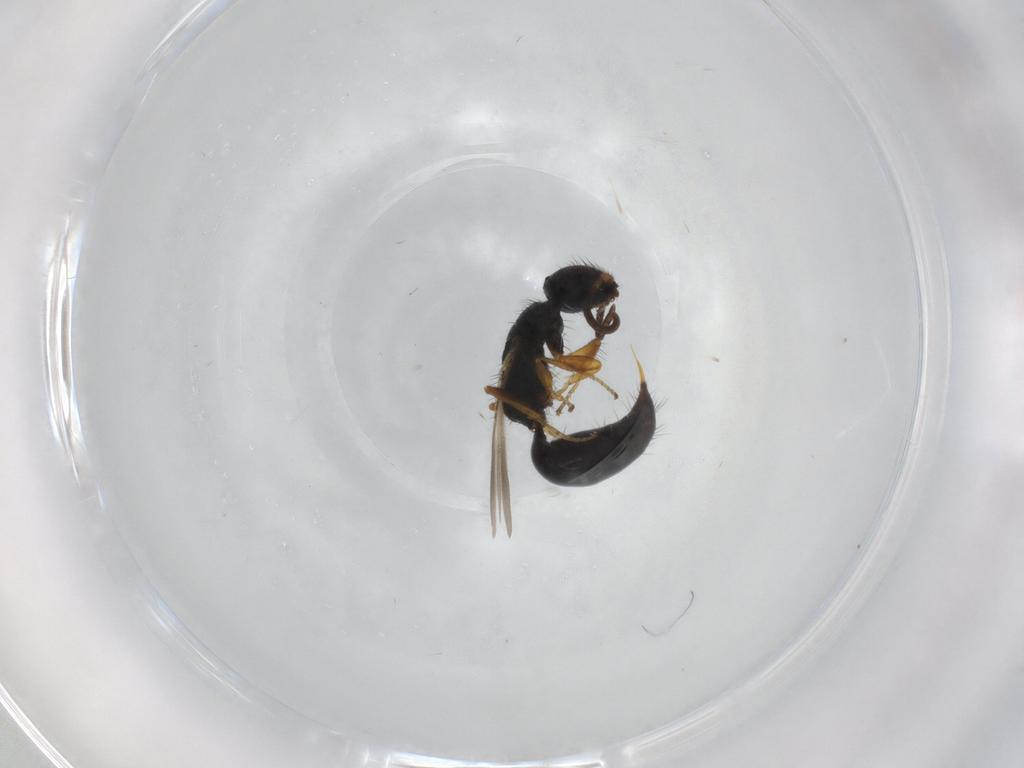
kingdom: Animalia
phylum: Arthropoda
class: Insecta
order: Hymenoptera
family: Bethylidae
